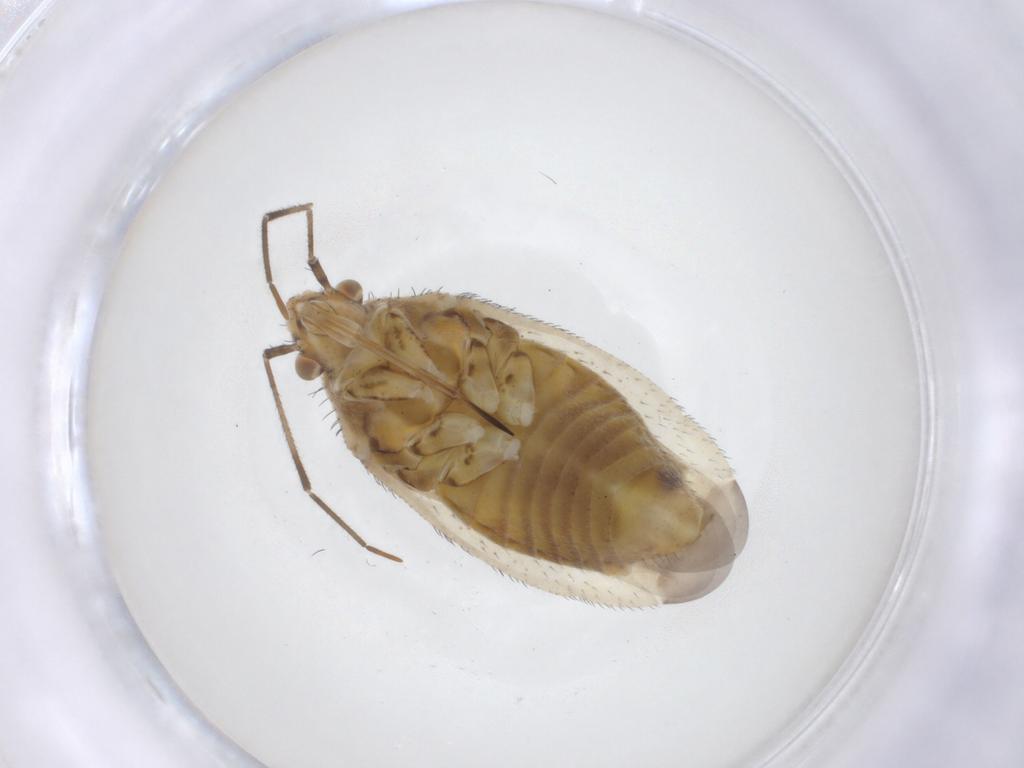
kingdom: Animalia
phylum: Arthropoda
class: Insecta
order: Hemiptera
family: Miridae
